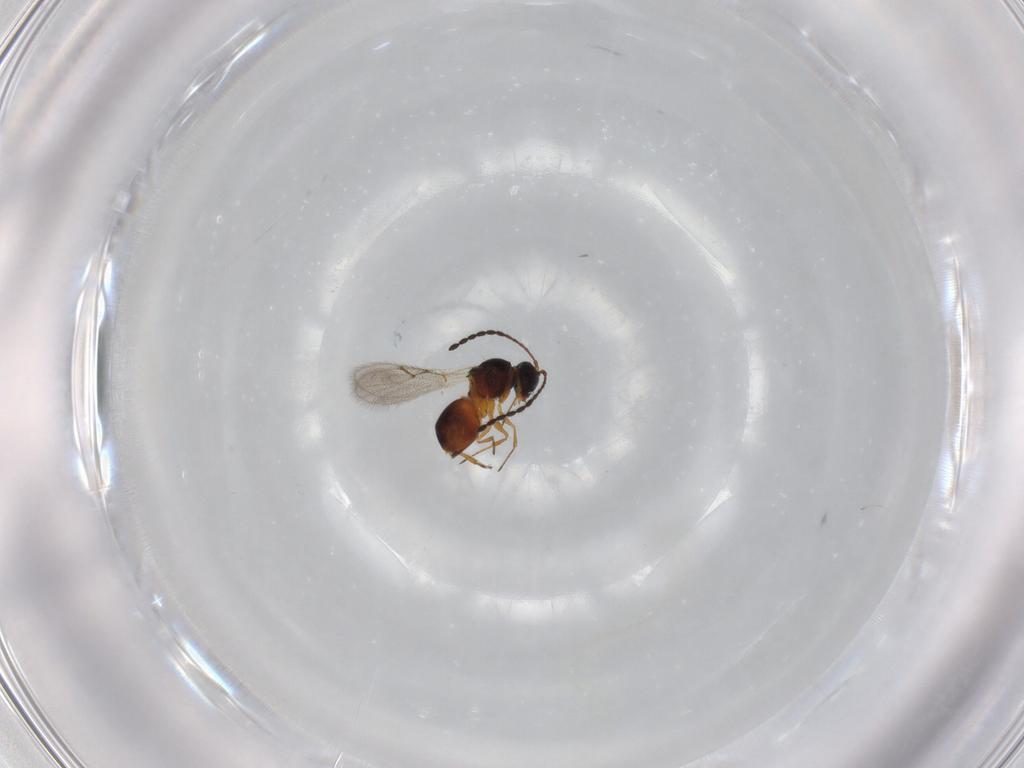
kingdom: Animalia
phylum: Arthropoda
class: Insecta
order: Hymenoptera
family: Figitidae
